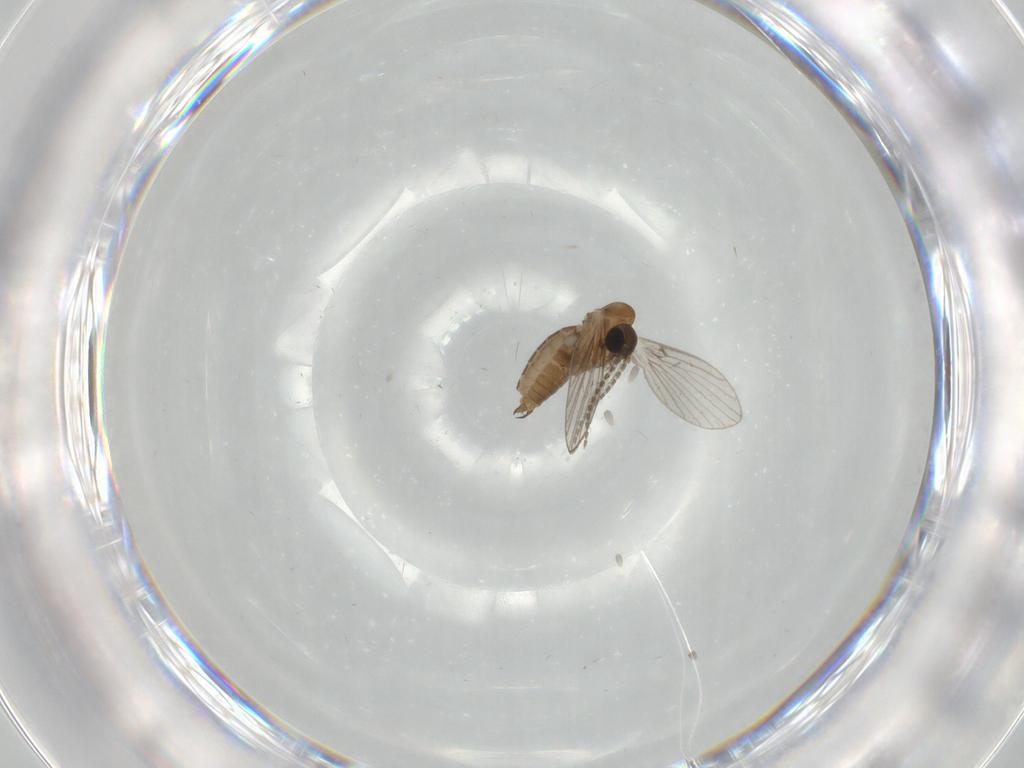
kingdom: Animalia
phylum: Arthropoda
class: Insecta
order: Diptera
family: Psychodidae
